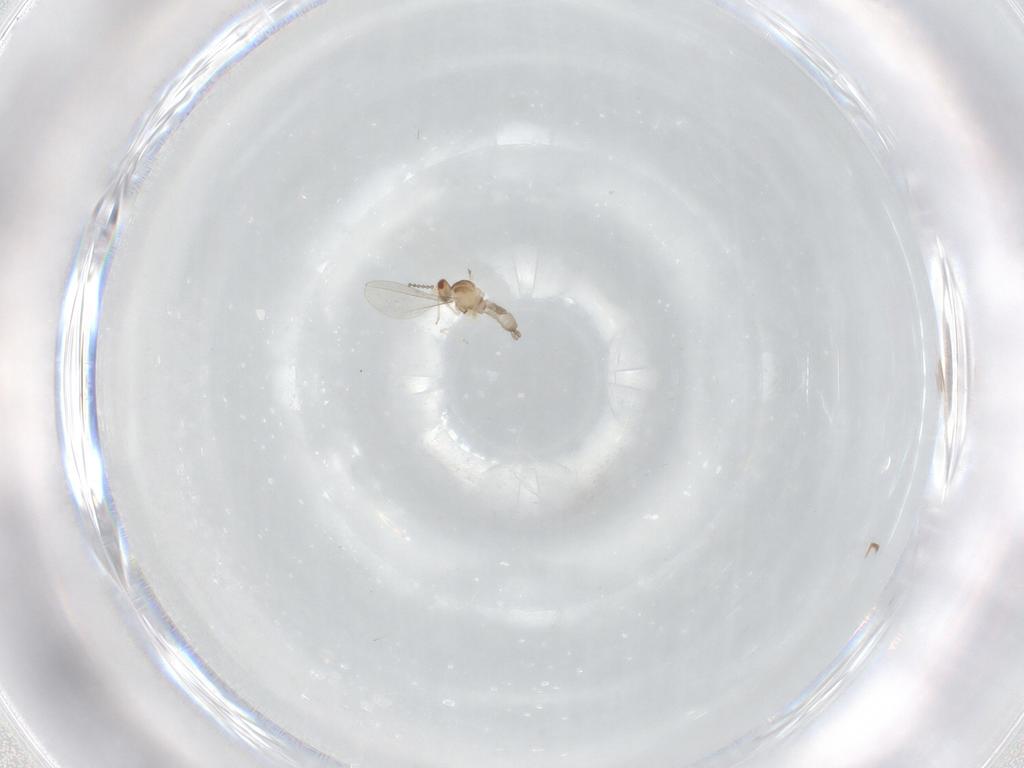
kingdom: Animalia
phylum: Arthropoda
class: Insecta
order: Diptera
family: Cecidomyiidae
